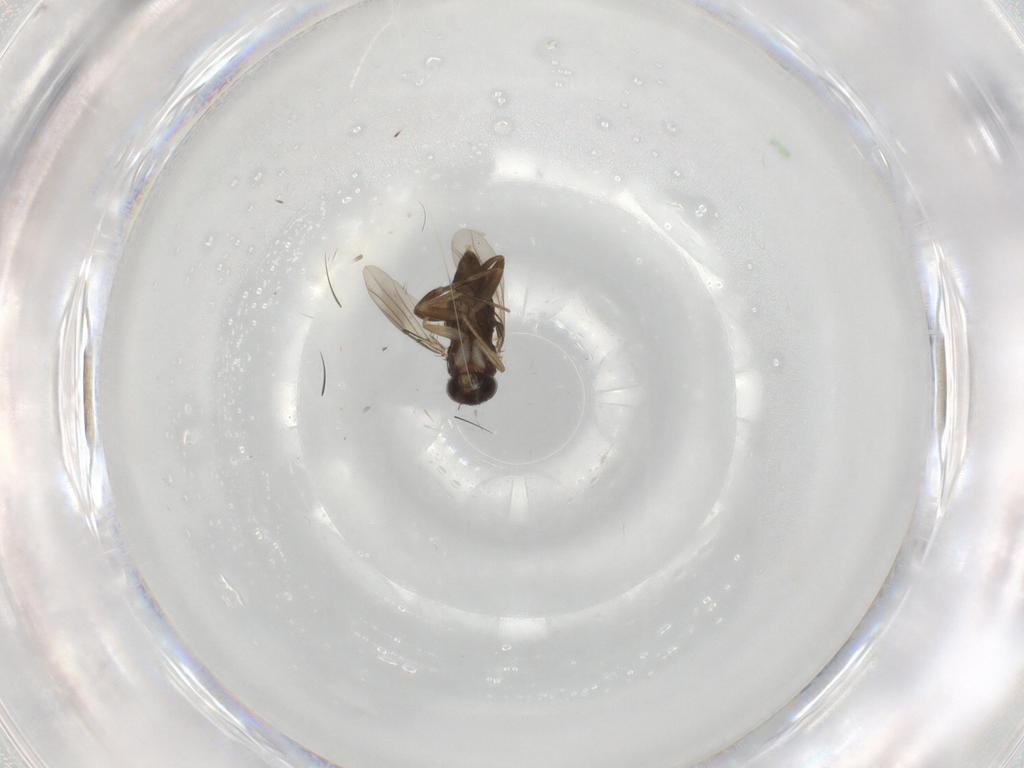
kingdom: Animalia
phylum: Arthropoda
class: Insecta
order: Diptera
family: Phoridae
